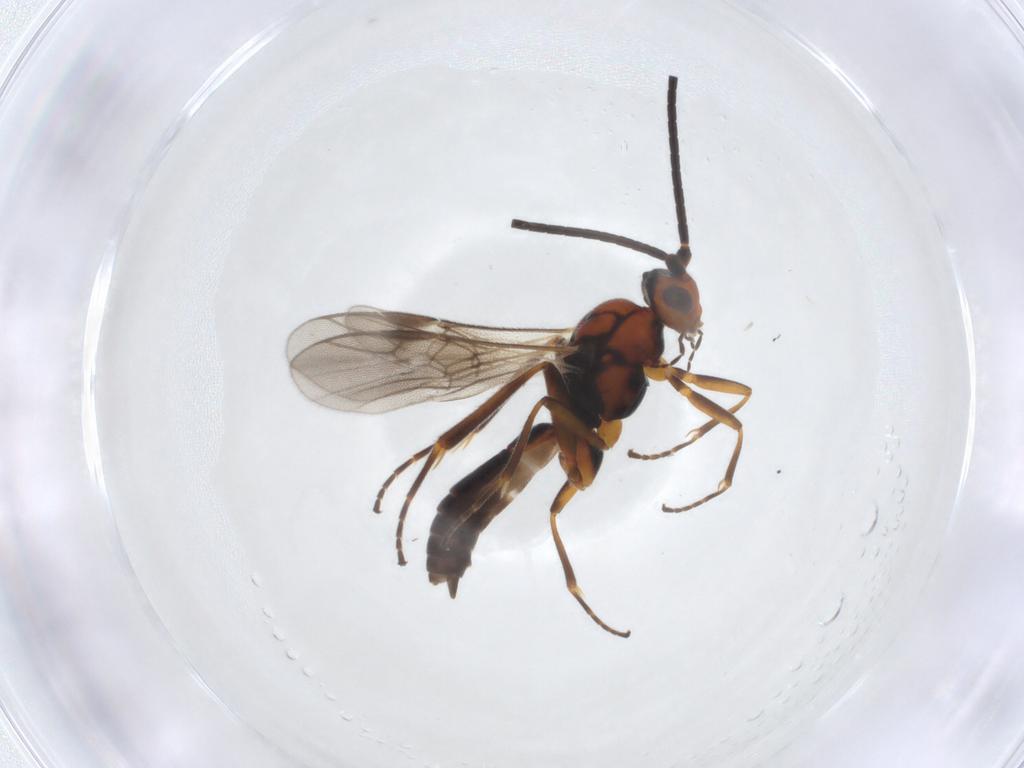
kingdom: Animalia
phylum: Arthropoda
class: Insecta
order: Hymenoptera
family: Braconidae
